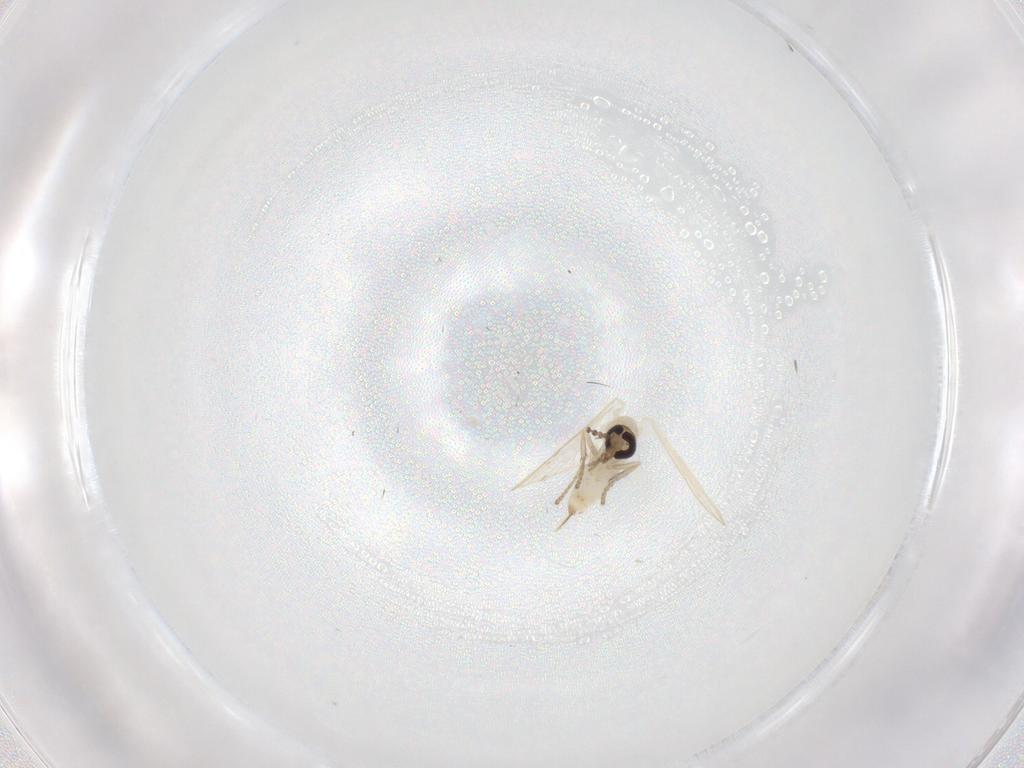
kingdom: Animalia
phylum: Arthropoda
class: Insecta
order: Diptera
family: Psychodidae
